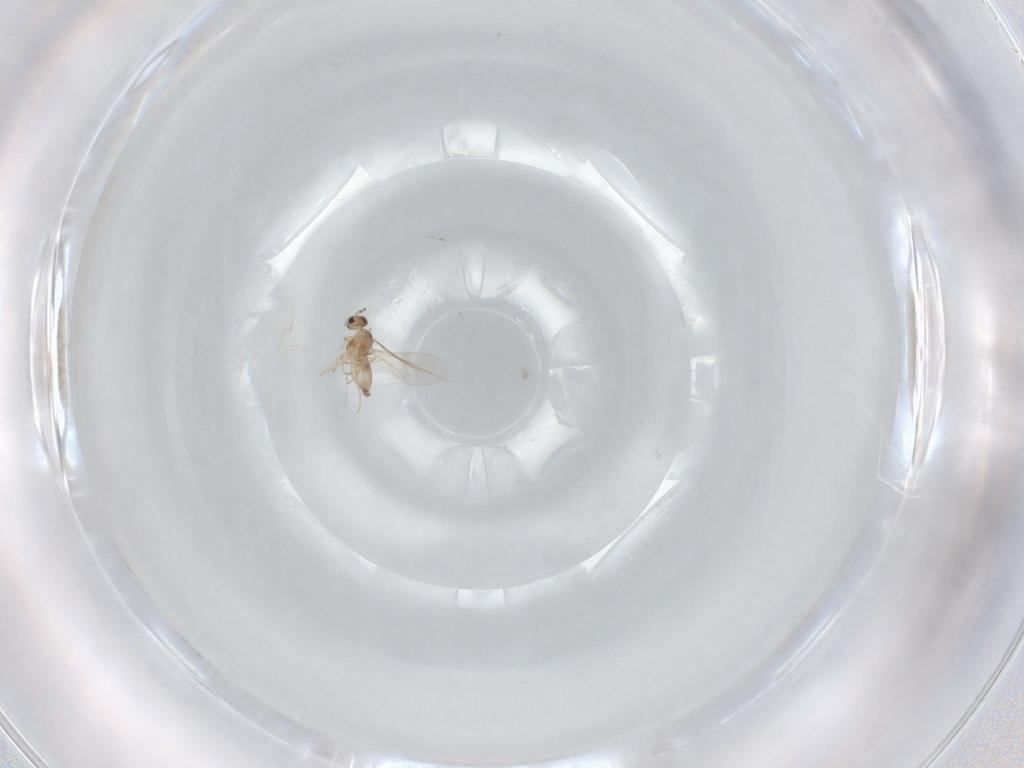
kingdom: Animalia
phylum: Arthropoda
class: Insecta
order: Diptera
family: Cecidomyiidae
